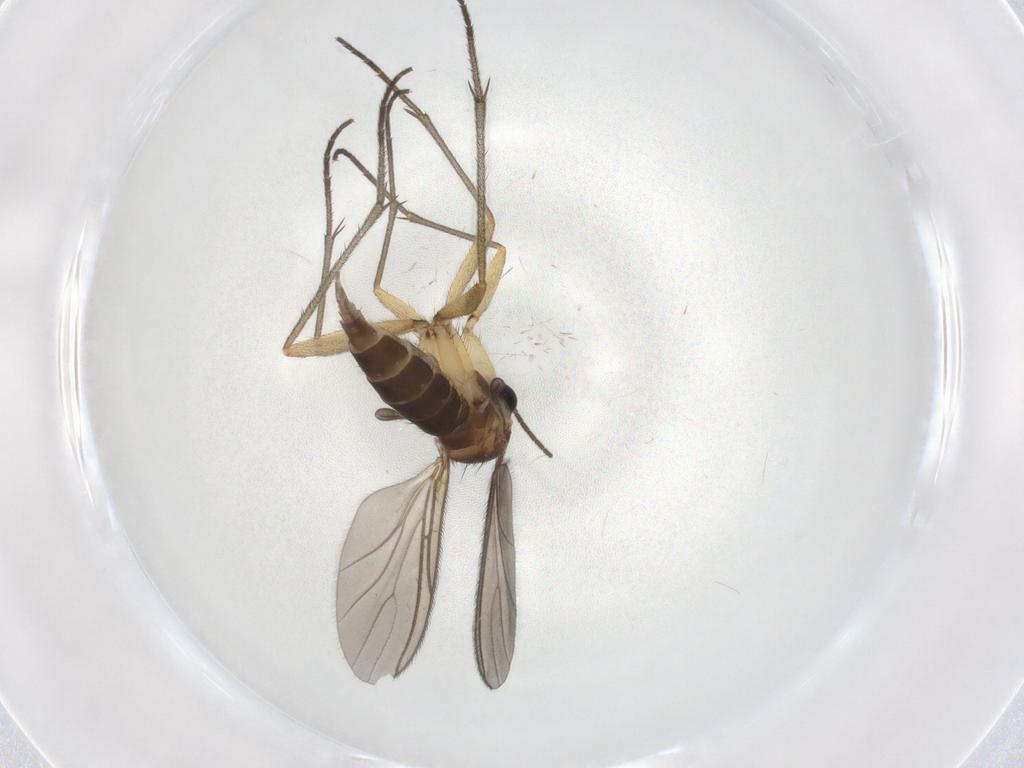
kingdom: Animalia
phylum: Arthropoda
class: Insecta
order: Diptera
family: Sciaridae
